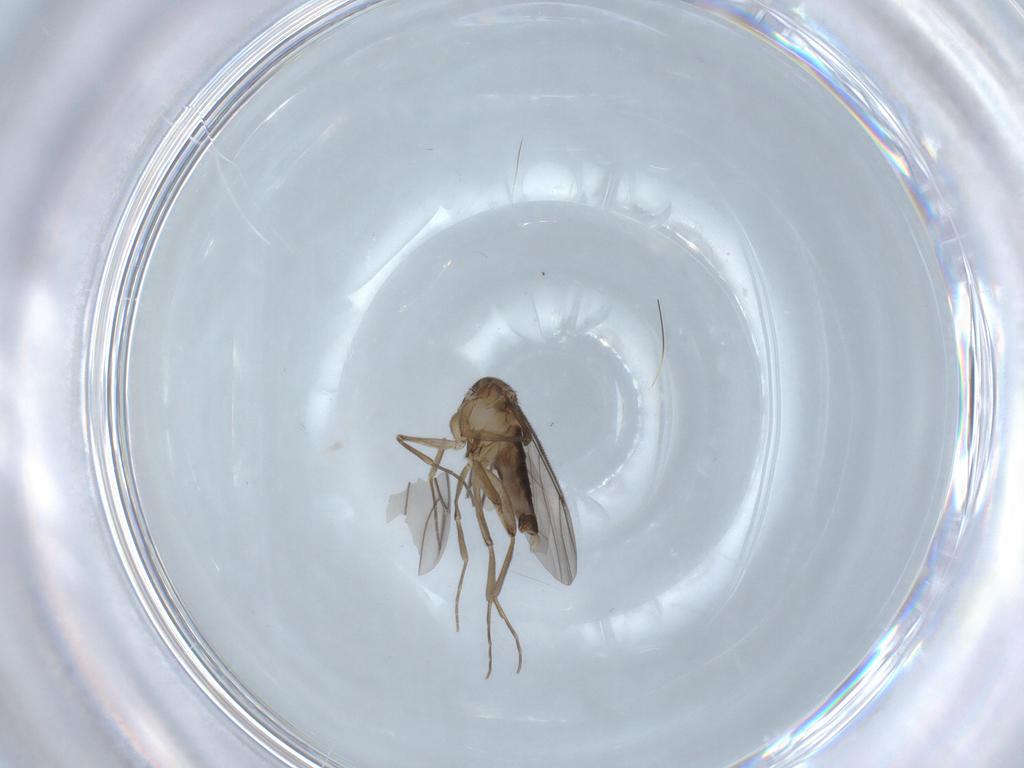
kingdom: Animalia
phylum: Arthropoda
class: Insecta
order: Diptera
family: Phoridae
